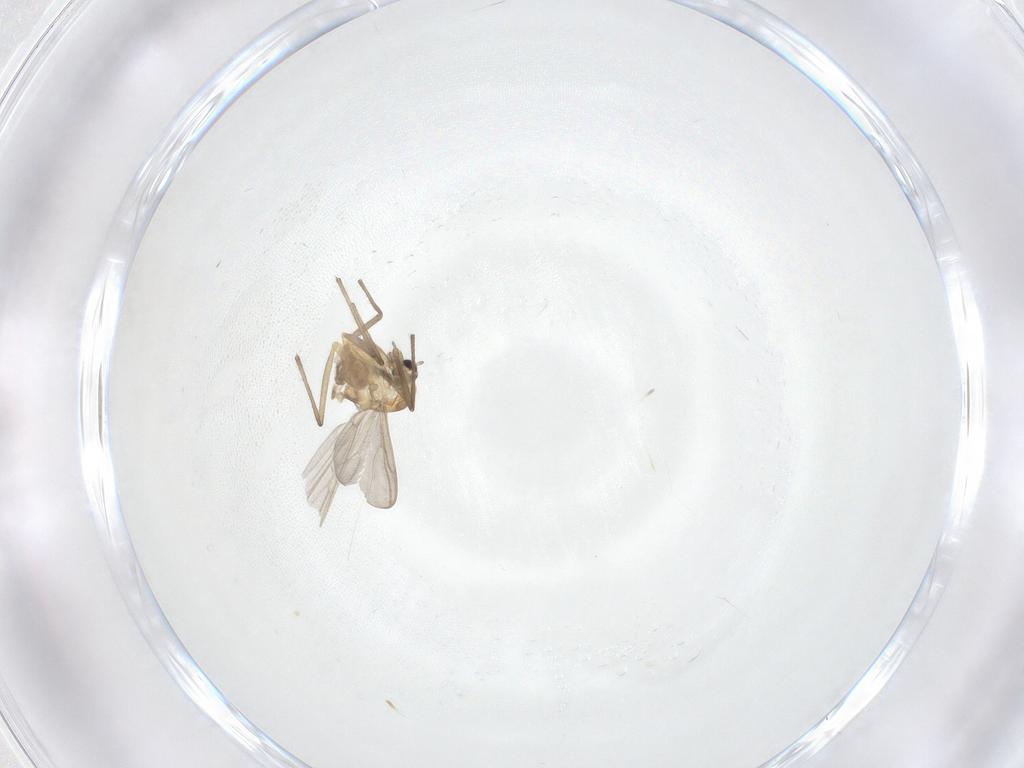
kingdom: Animalia
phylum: Arthropoda
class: Insecta
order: Diptera
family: Chironomidae
